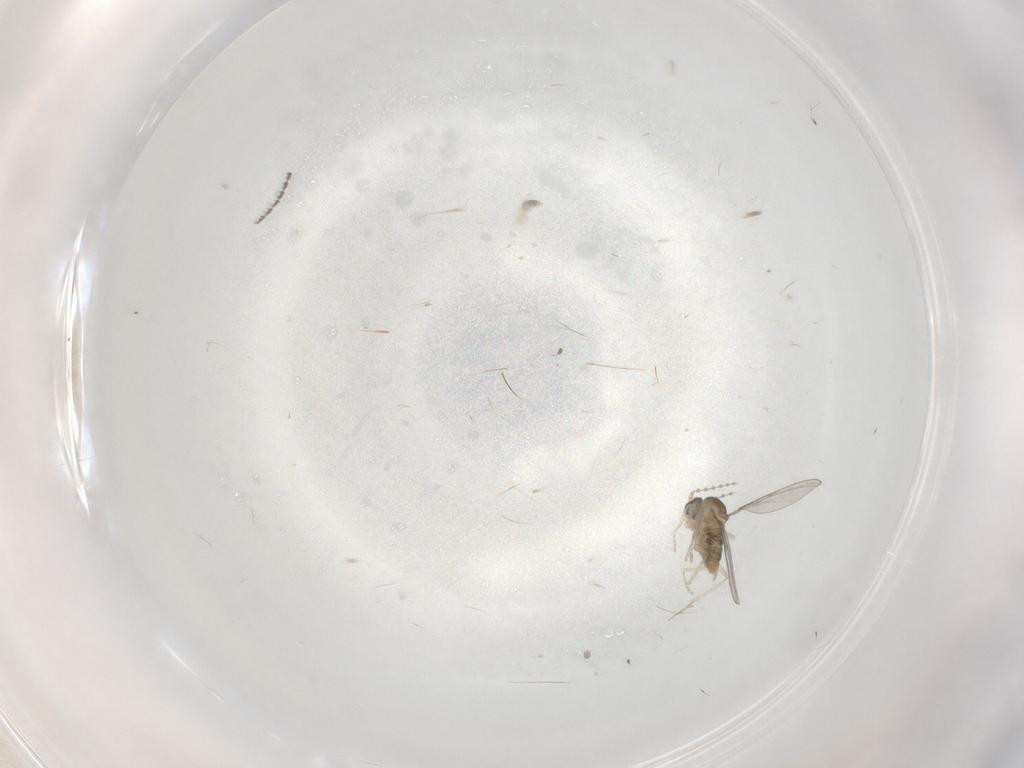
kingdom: Animalia
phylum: Arthropoda
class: Insecta
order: Diptera
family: Cecidomyiidae
